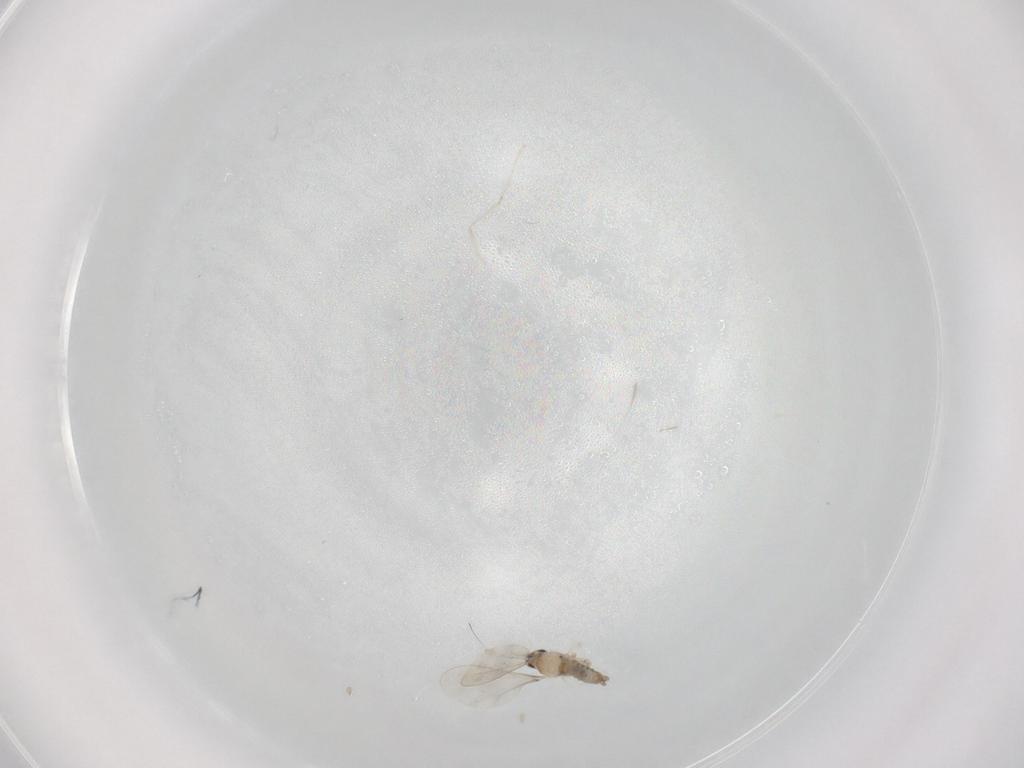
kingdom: Animalia
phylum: Arthropoda
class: Insecta
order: Diptera
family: Cecidomyiidae
